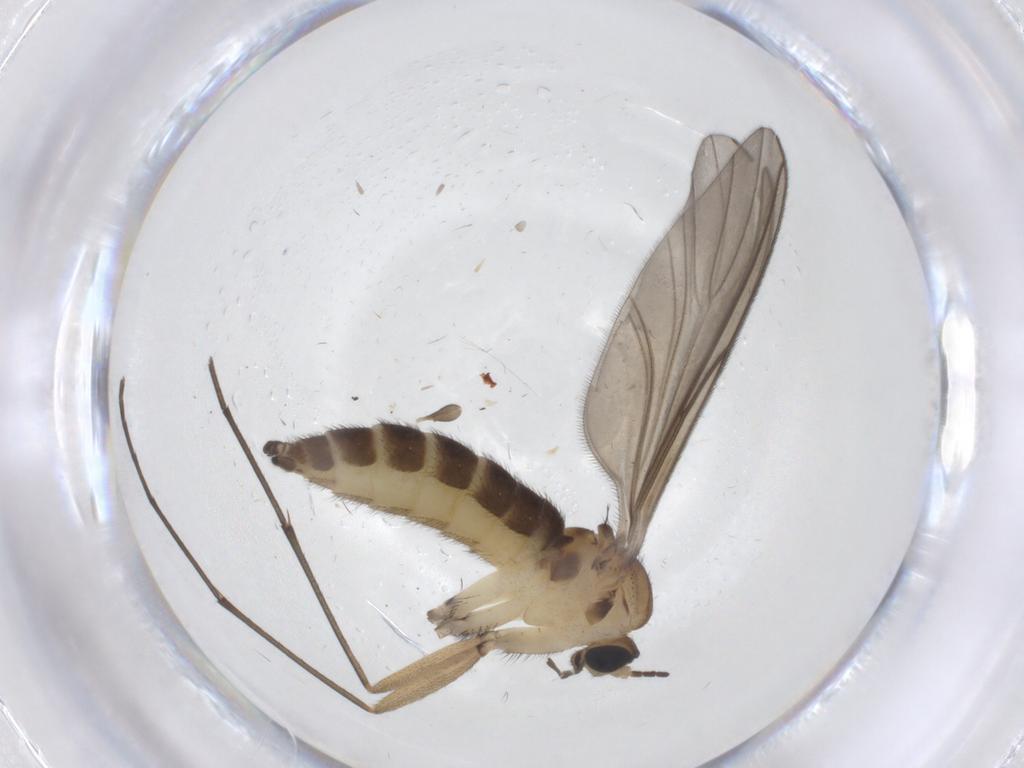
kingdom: Animalia
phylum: Arthropoda
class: Insecta
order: Diptera
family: Sciaridae
